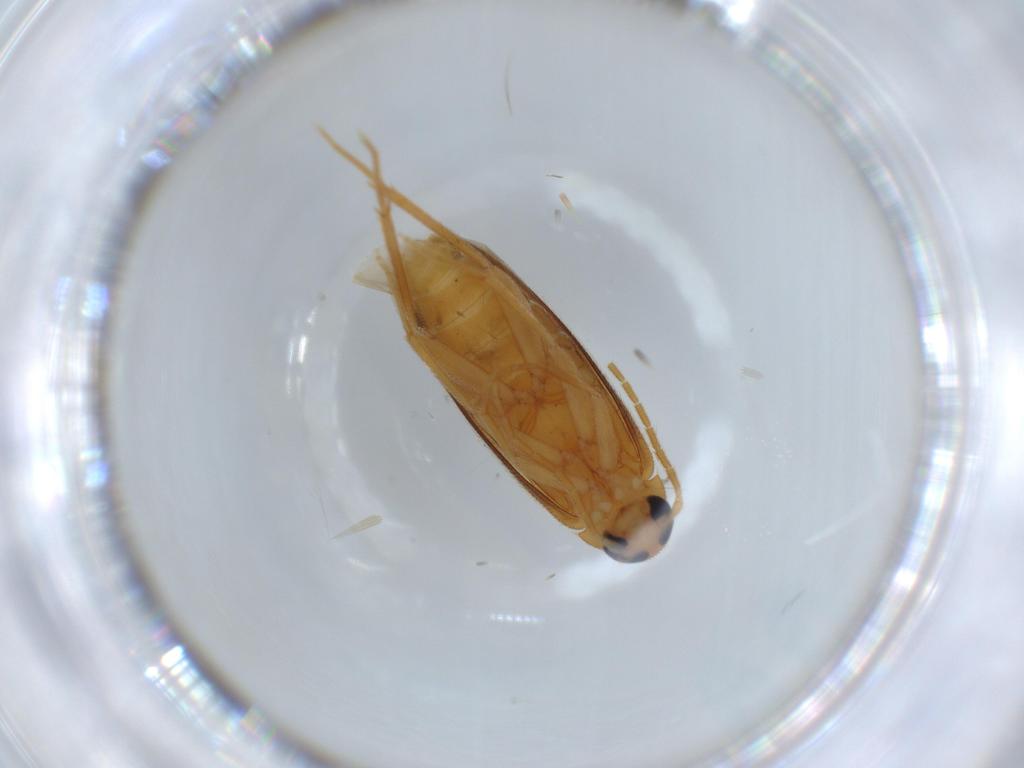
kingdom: Animalia
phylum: Arthropoda
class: Insecta
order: Coleoptera
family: Scraptiidae
